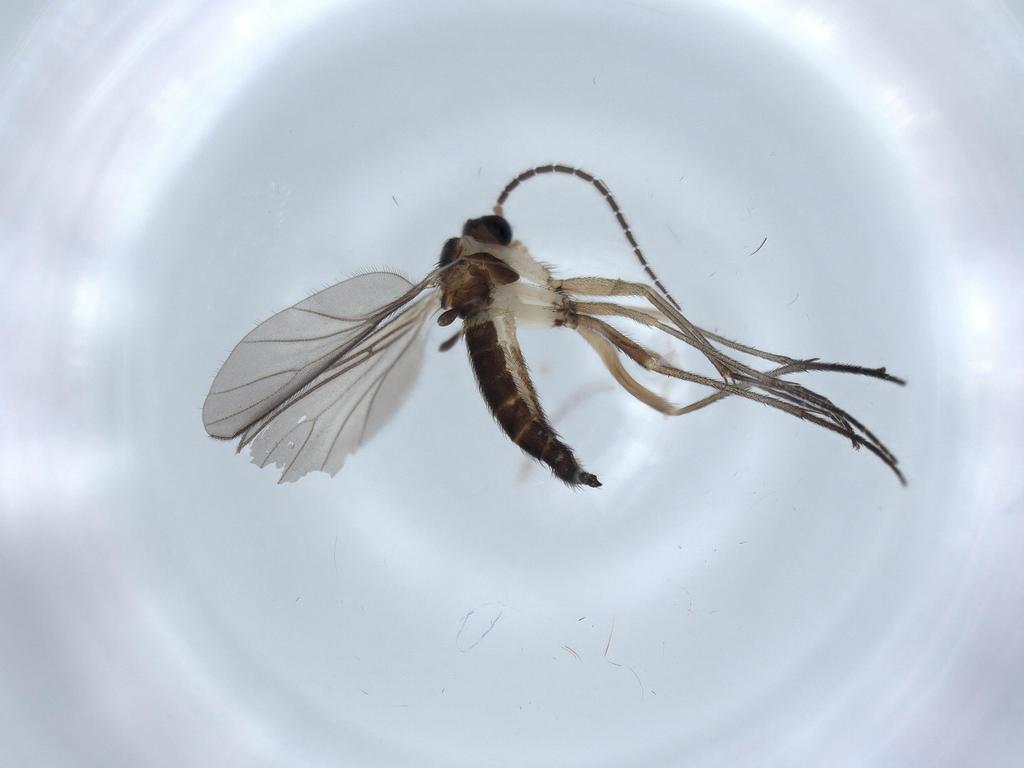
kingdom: Animalia
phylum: Arthropoda
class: Insecta
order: Diptera
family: Sciaridae
